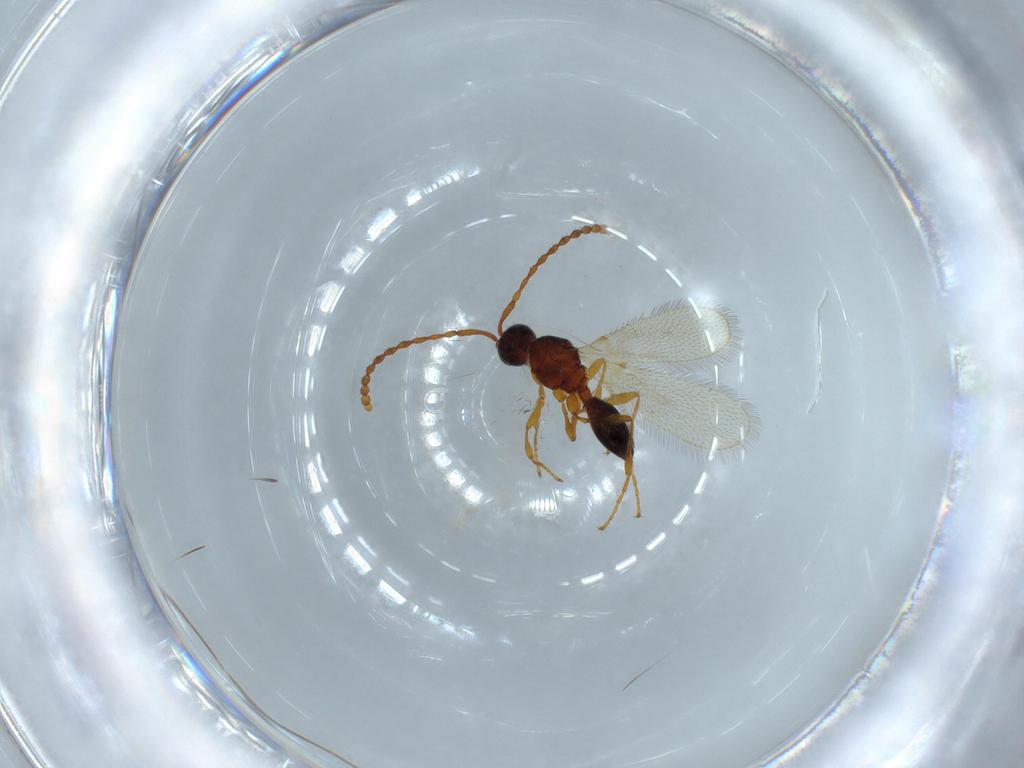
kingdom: Animalia
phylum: Arthropoda
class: Insecta
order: Hymenoptera
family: Diapriidae
